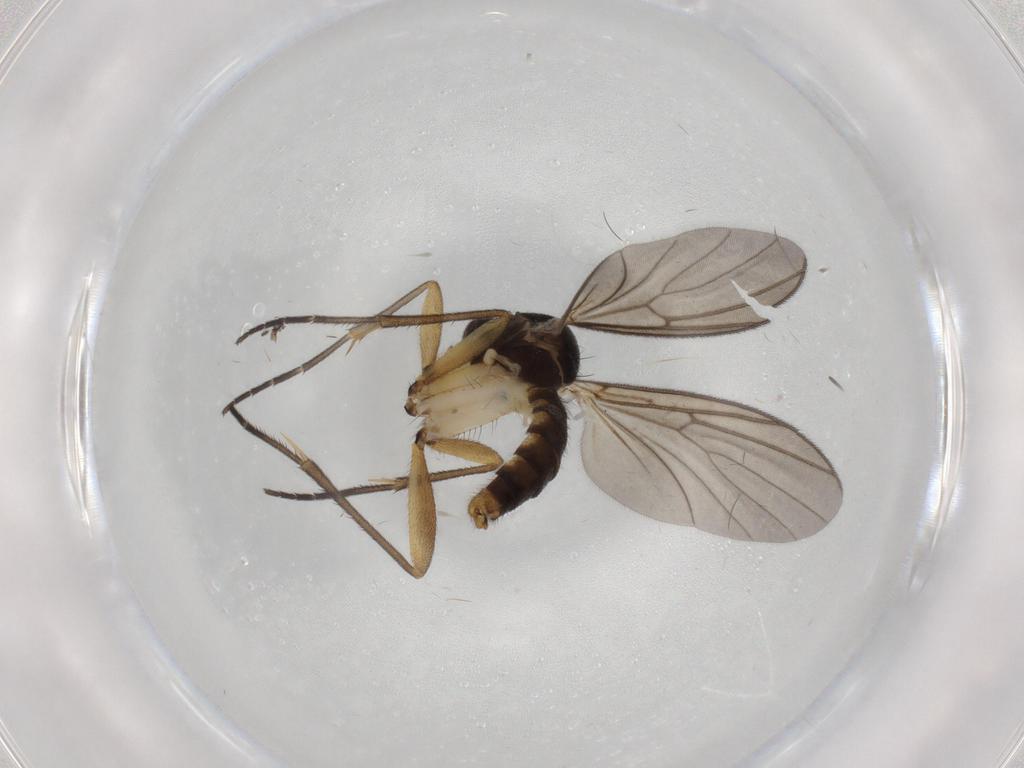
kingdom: Animalia
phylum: Arthropoda
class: Insecta
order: Diptera
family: Mycetophilidae
